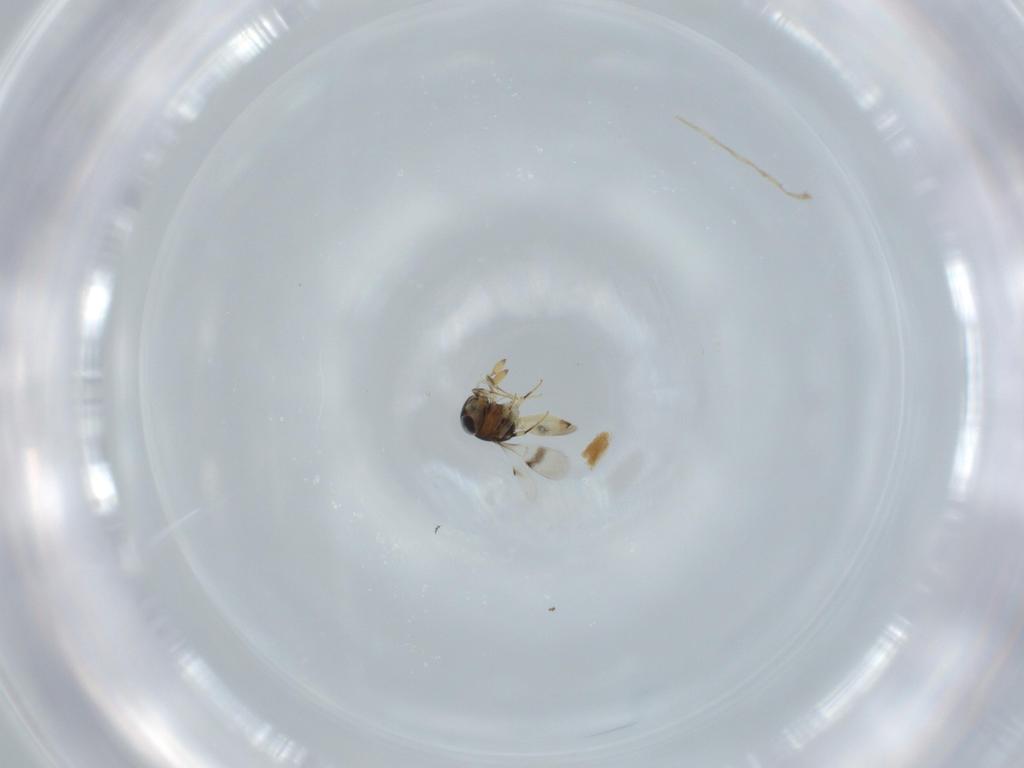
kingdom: Animalia
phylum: Arthropoda
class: Insecta
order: Hymenoptera
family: Scelionidae
